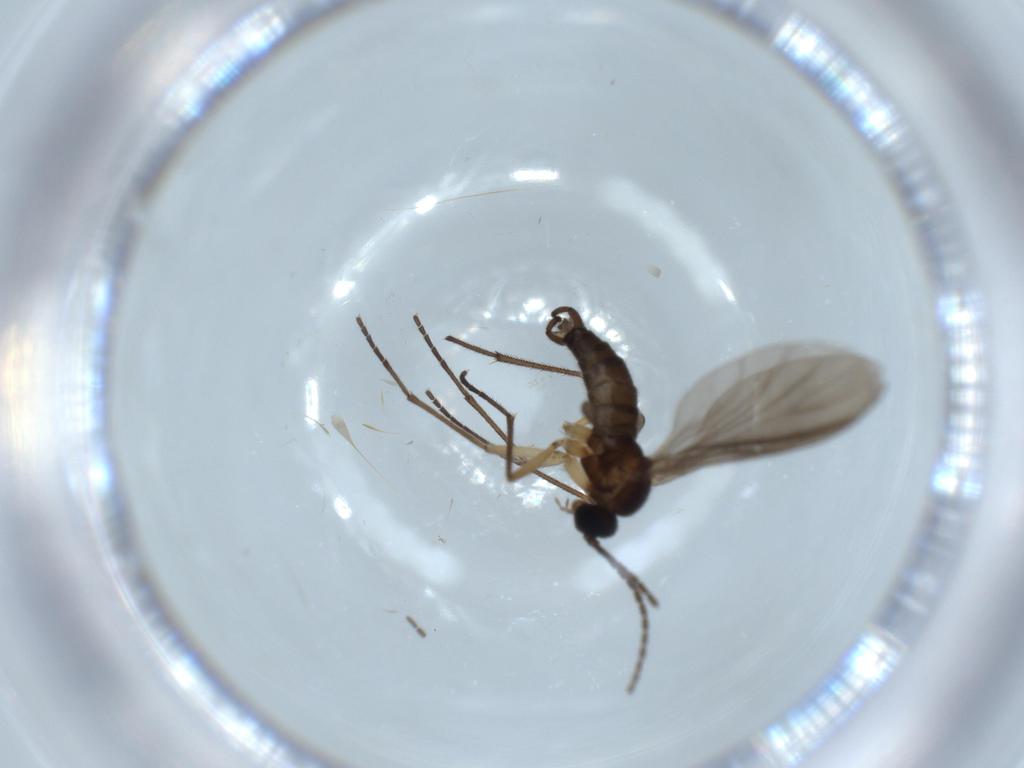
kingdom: Animalia
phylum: Arthropoda
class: Insecta
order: Diptera
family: Sciaridae
